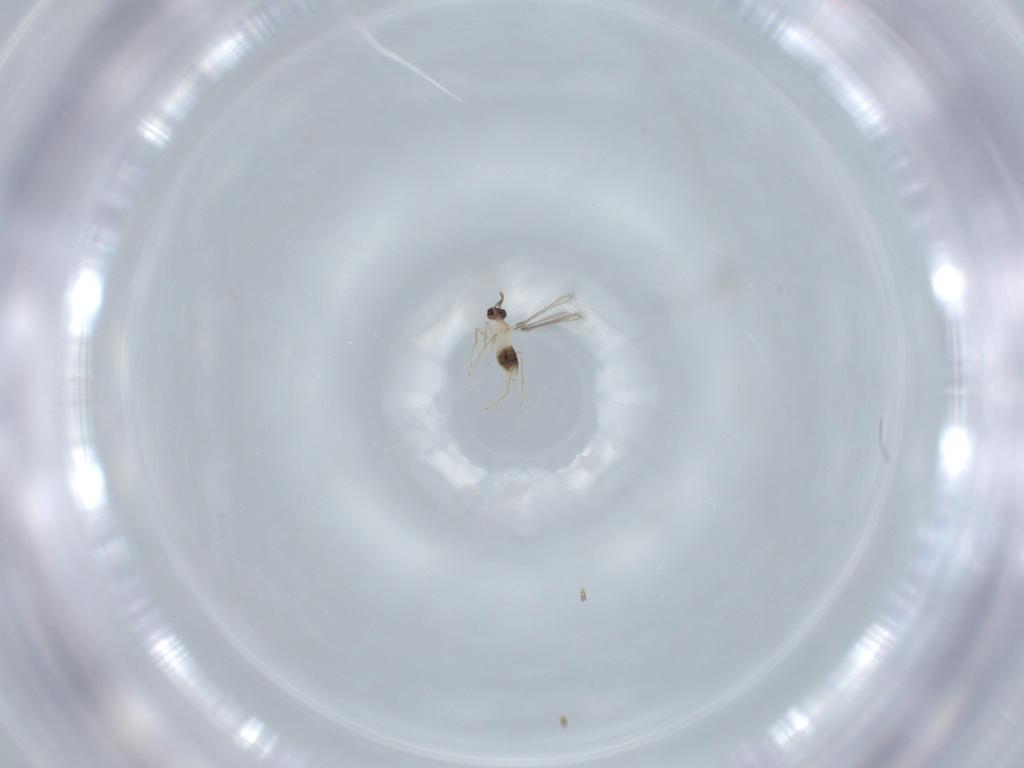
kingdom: Animalia
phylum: Arthropoda
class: Insecta
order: Hymenoptera
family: Mymaridae
